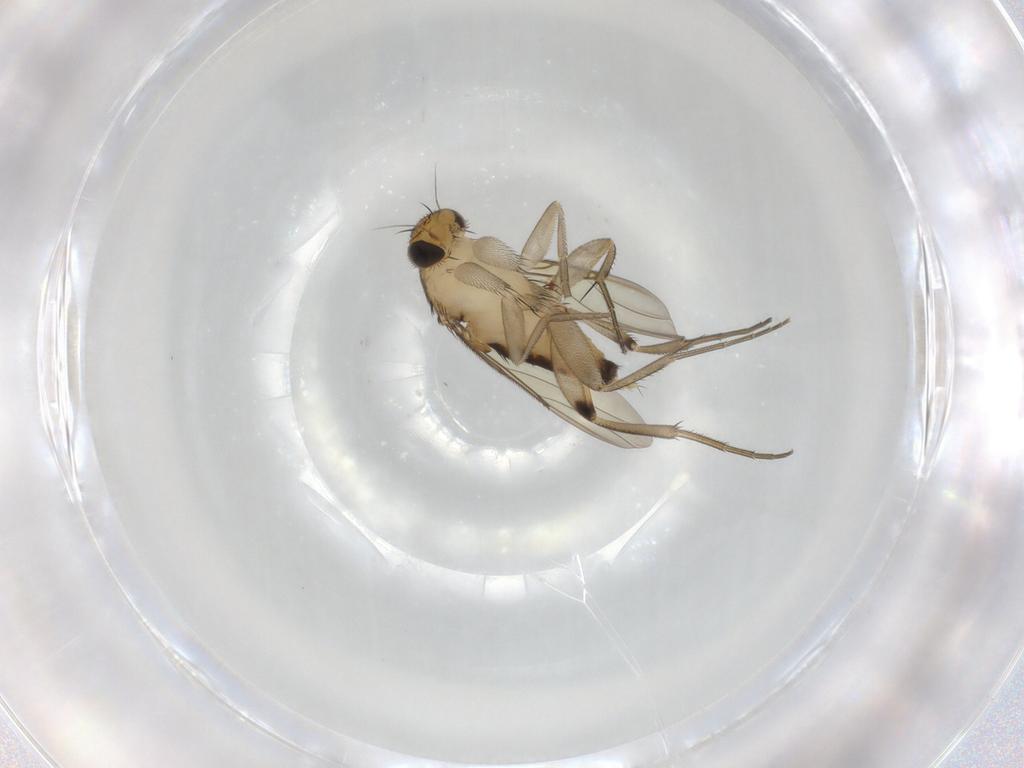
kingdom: Animalia
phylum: Arthropoda
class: Insecta
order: Diptera
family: Phoridae
